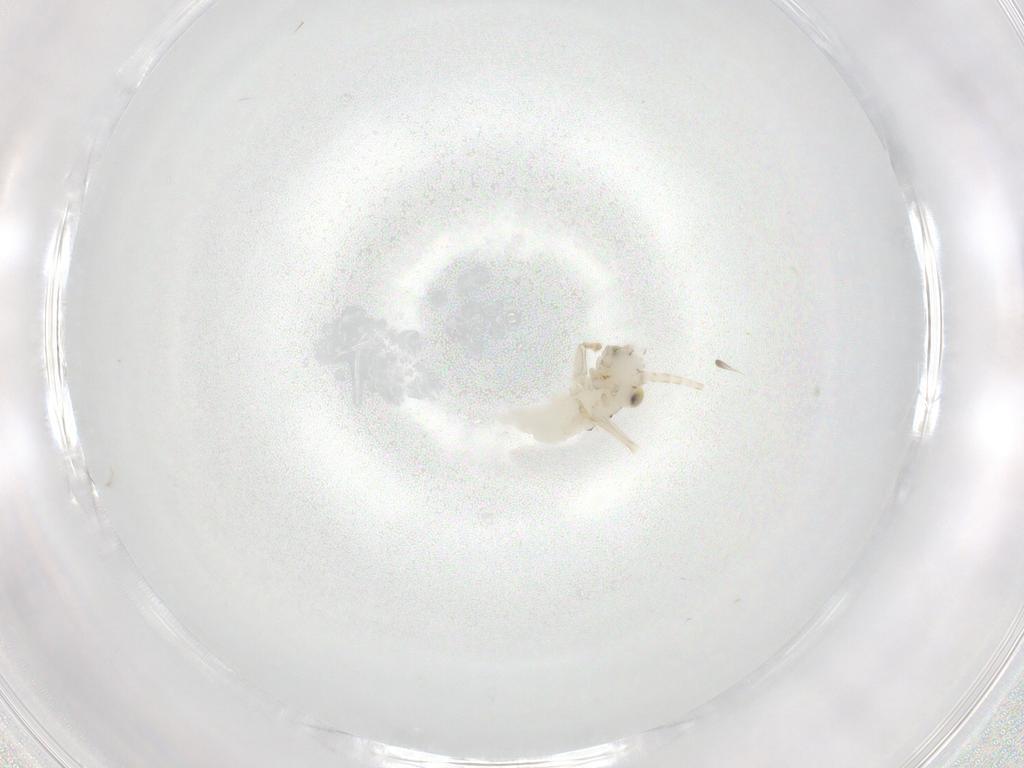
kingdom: Animalia
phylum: Arthropoda
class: Insecta
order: Orthoptera
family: Trigonidiidae
